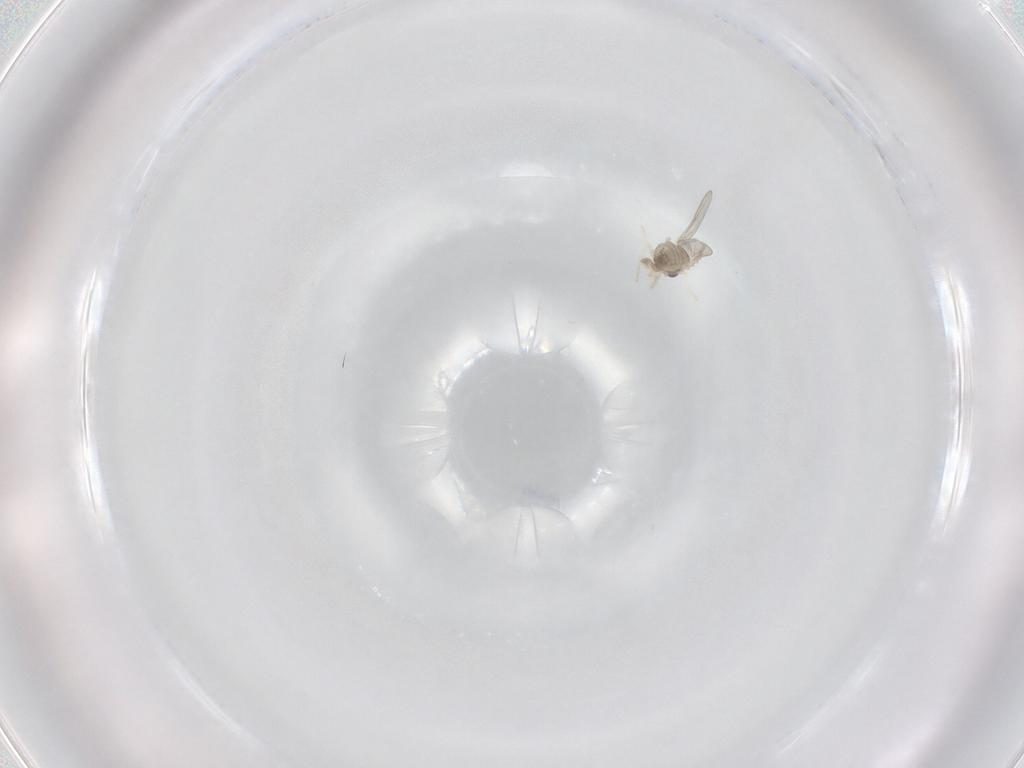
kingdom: Animalia
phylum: Arthropoda
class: Insecta
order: Diptera
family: Cecidomyiidae
